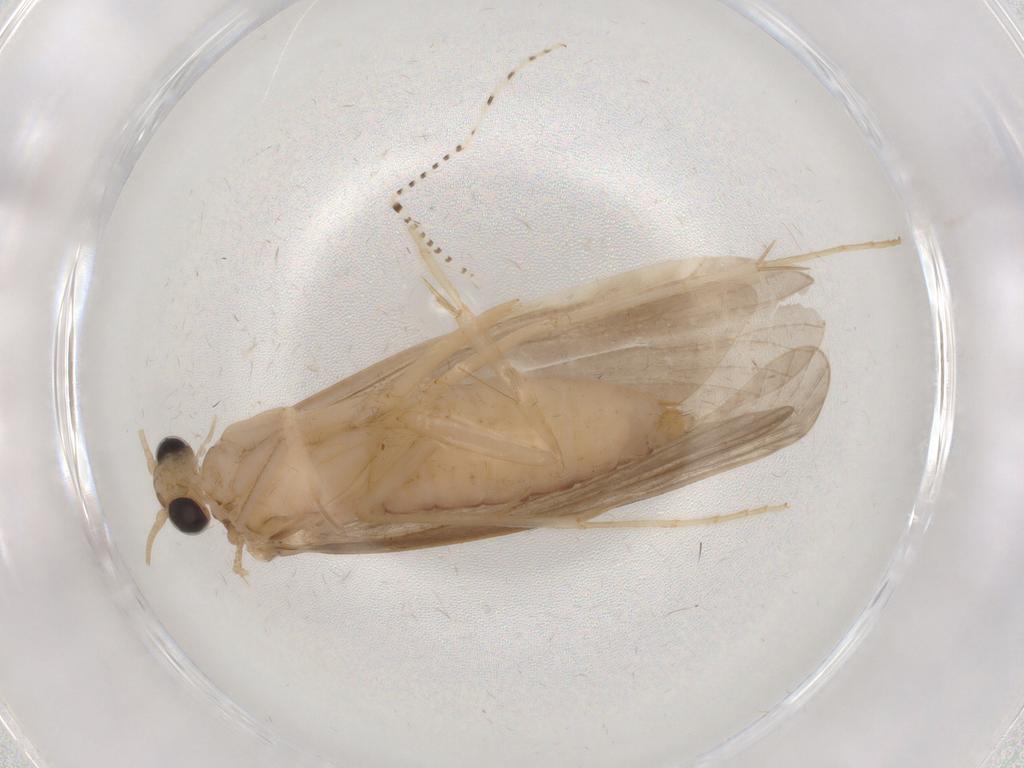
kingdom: Animalia
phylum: Arthropoda
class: Insecta
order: Trichoptera
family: Ecnomidae
